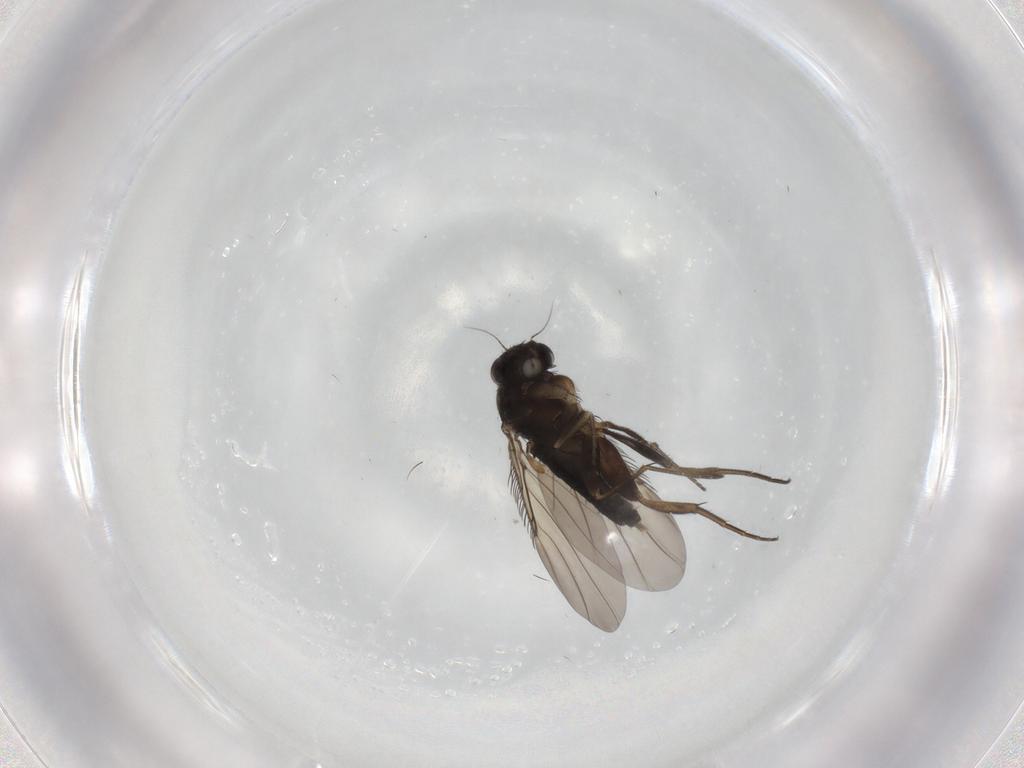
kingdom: Animalia
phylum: Arthropoda
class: Insecta
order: Diptera
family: Phoridae
